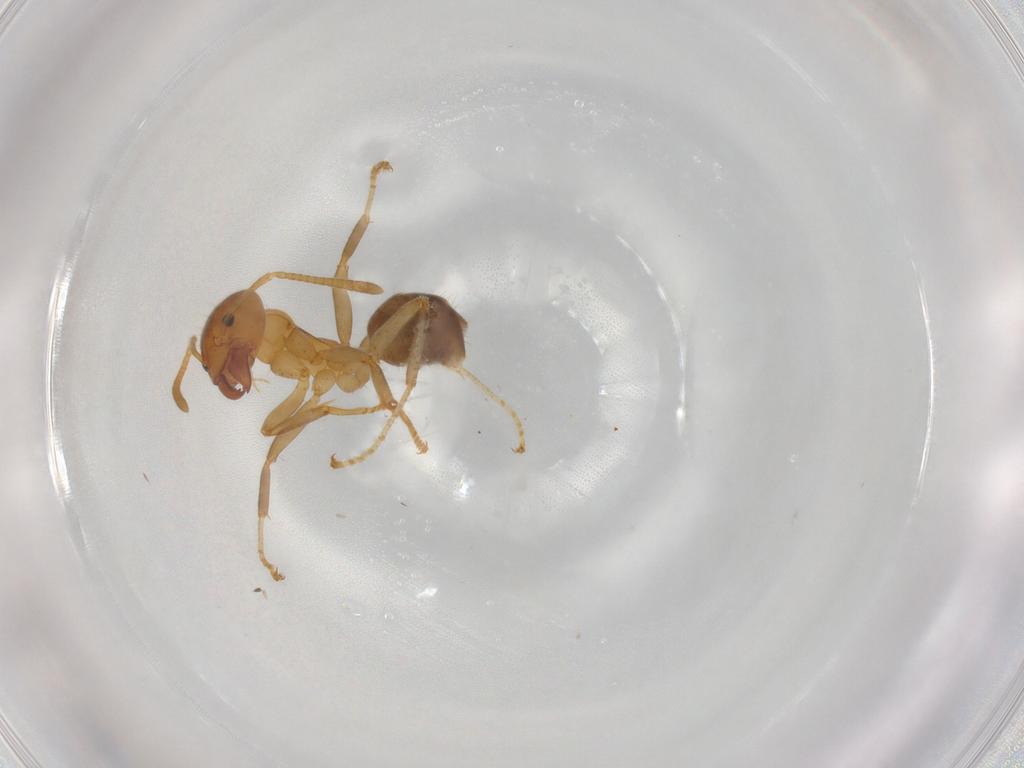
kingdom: Animalia
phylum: Arthropoda
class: Insecta
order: Hymenoptera
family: Formicidae
